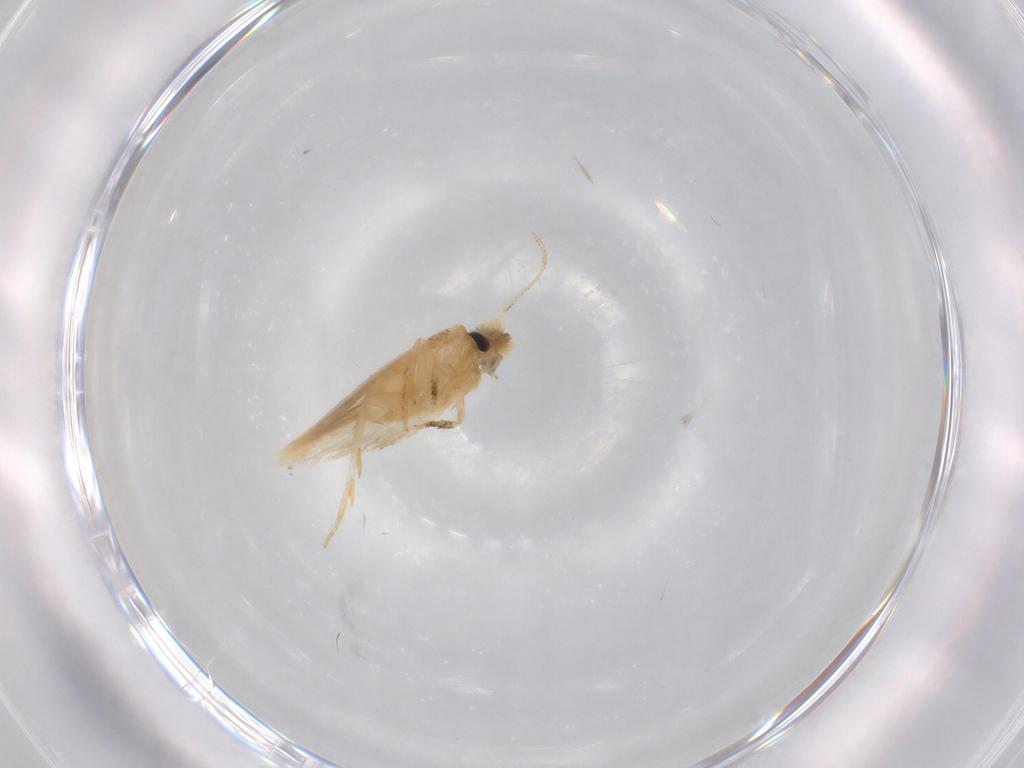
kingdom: Animalia
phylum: Arthropoda
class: Insecta
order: Lepidoptera
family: Nepticulidae
